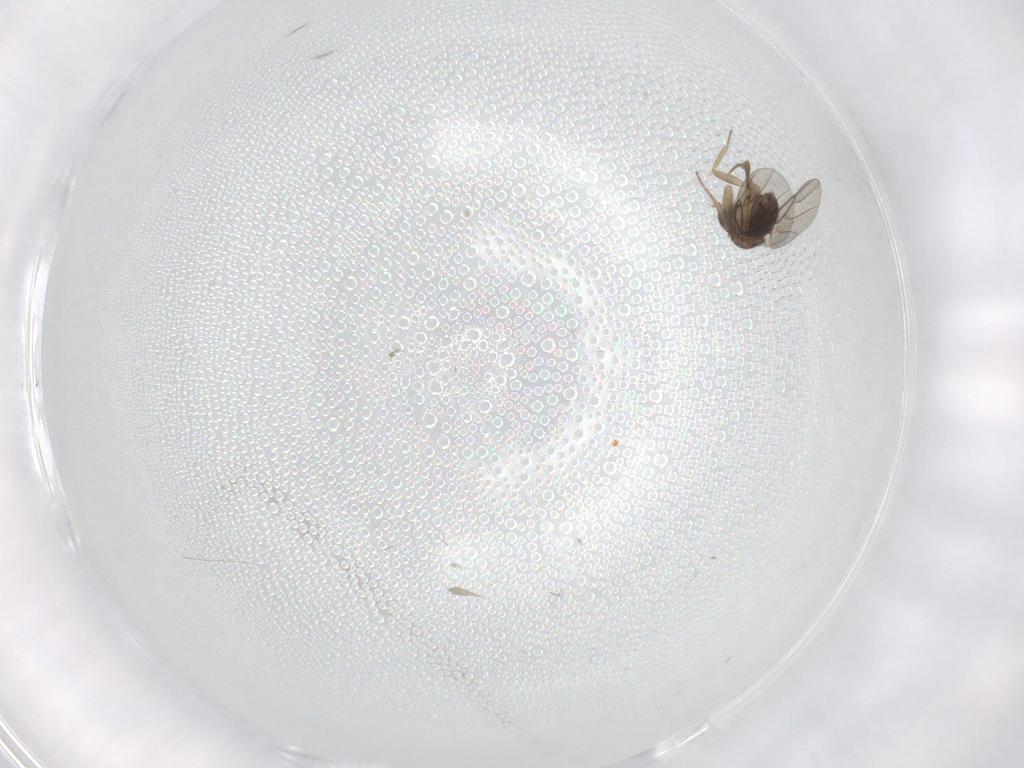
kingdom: Animalia
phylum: Arthropoda
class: Insecta
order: Diptera
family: Phoridae
